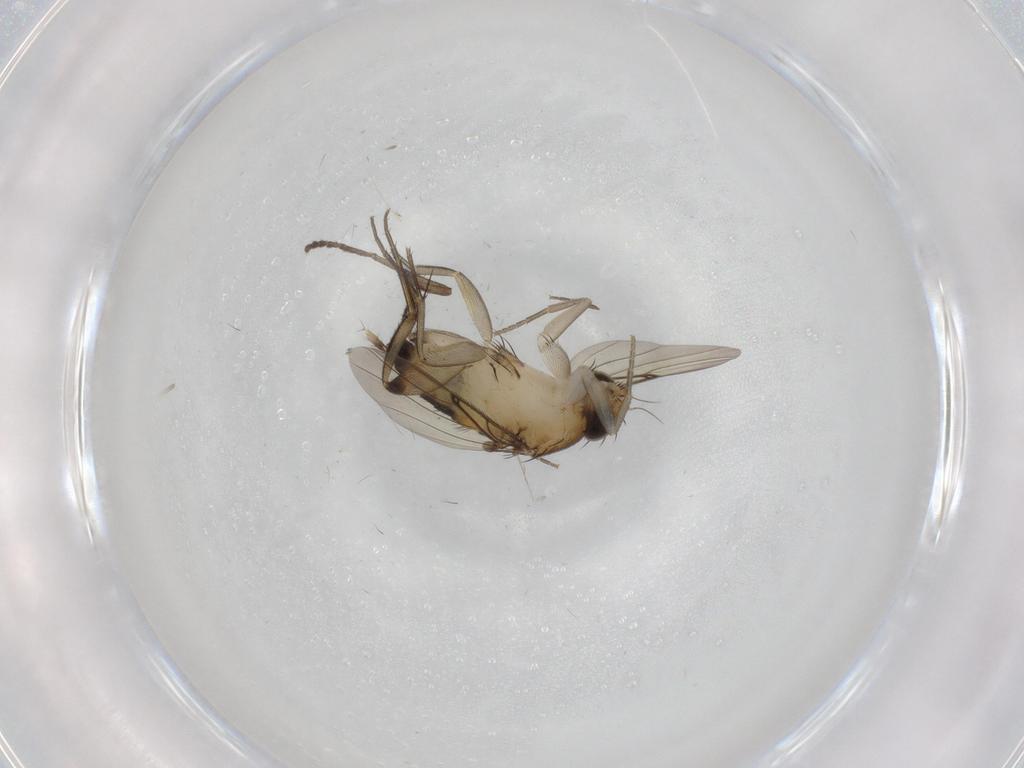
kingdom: Animalia
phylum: Arthropoda
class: Insecta
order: Diptera
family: Psychodidae
